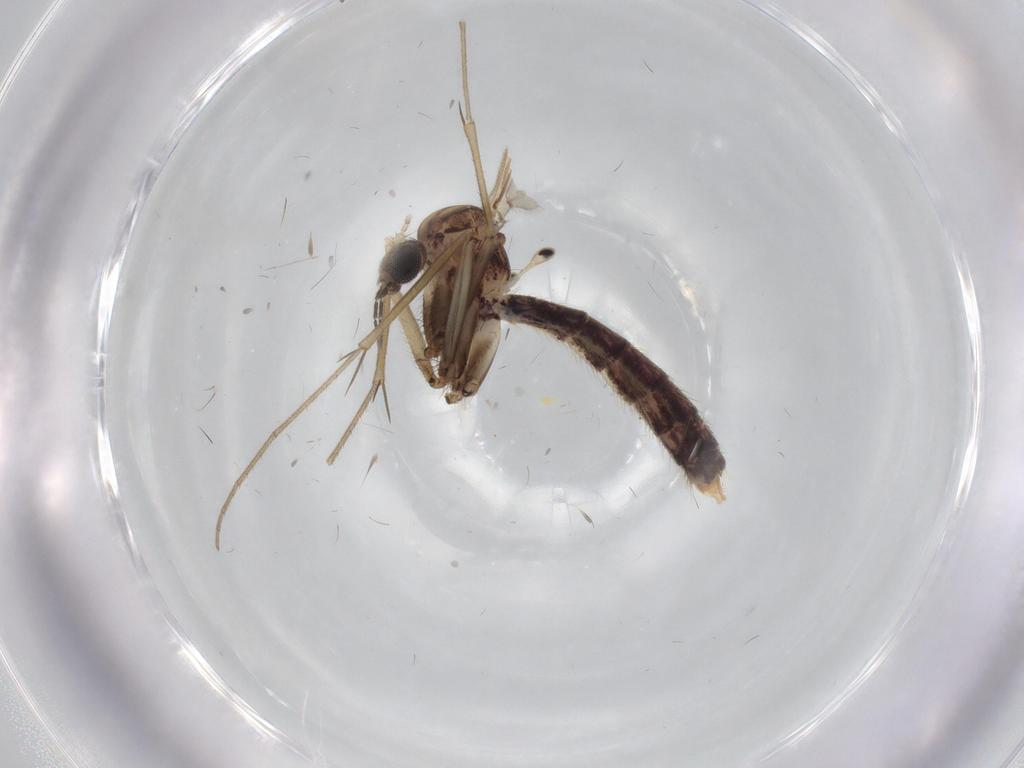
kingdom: Animalia
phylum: Arthropoda
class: Insecta
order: Diptera
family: Mycetophilidae
